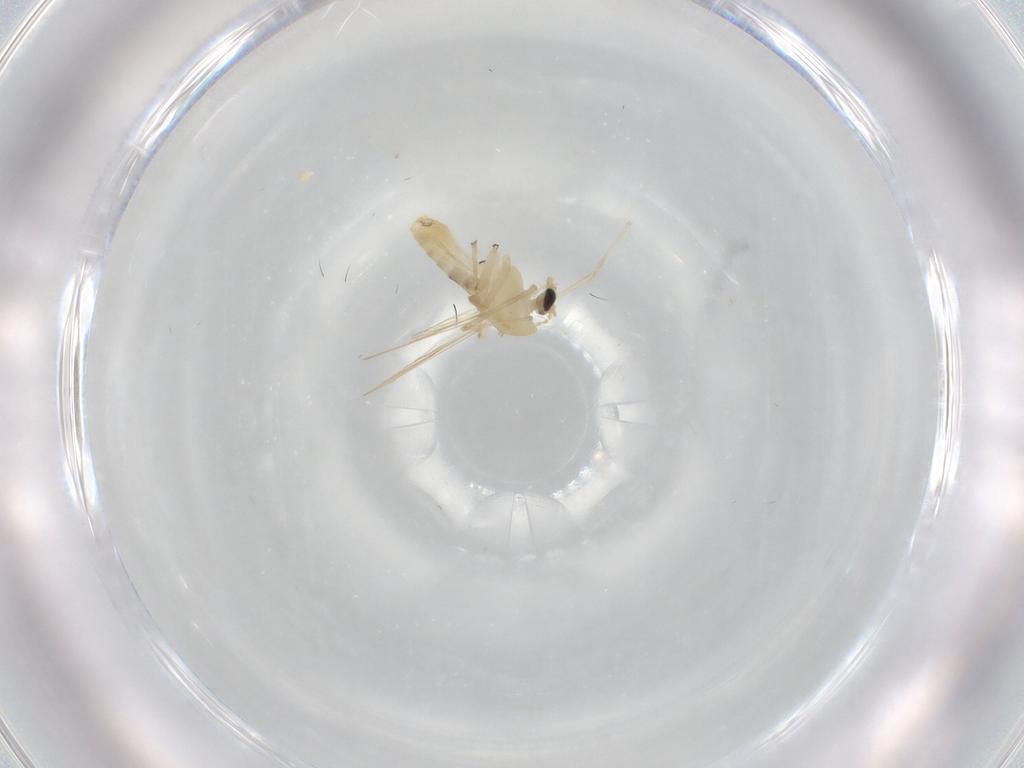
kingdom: Animalia
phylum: Arthropoda
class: Insecta
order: Diptera
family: Chironomidae
